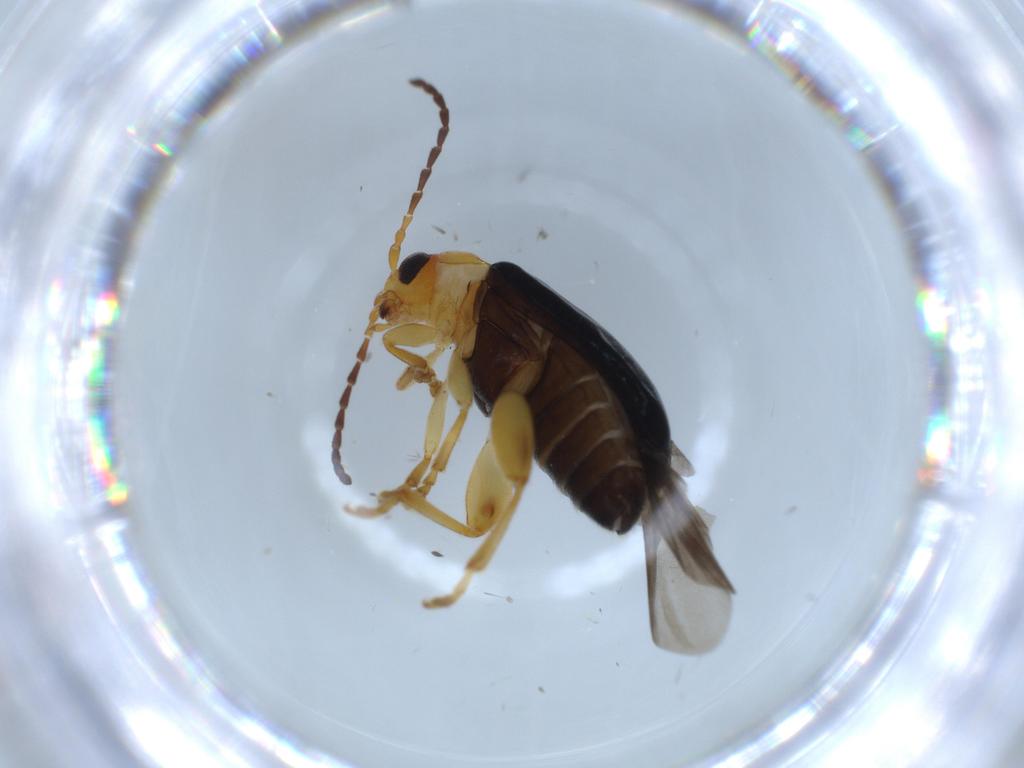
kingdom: Animalia
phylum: Arthropoda
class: Insecta
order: Coleoptera
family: Chrysomelidae
